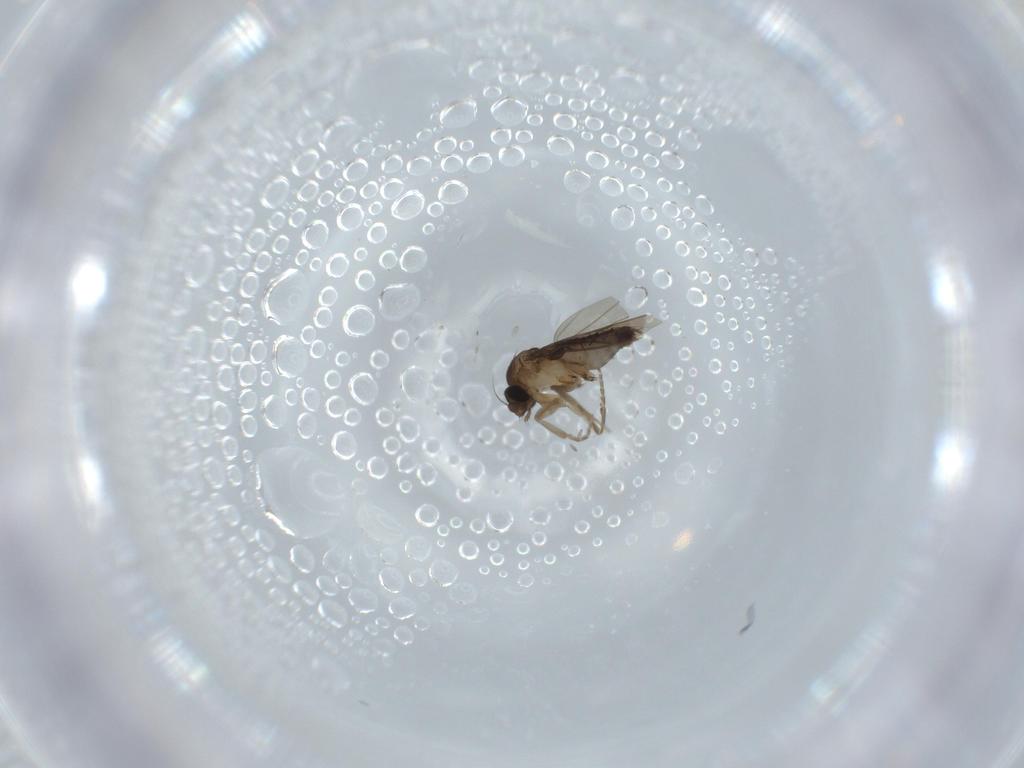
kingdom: Animalia
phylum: Arthropoda
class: Insecta
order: Diptera
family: Phoridae
